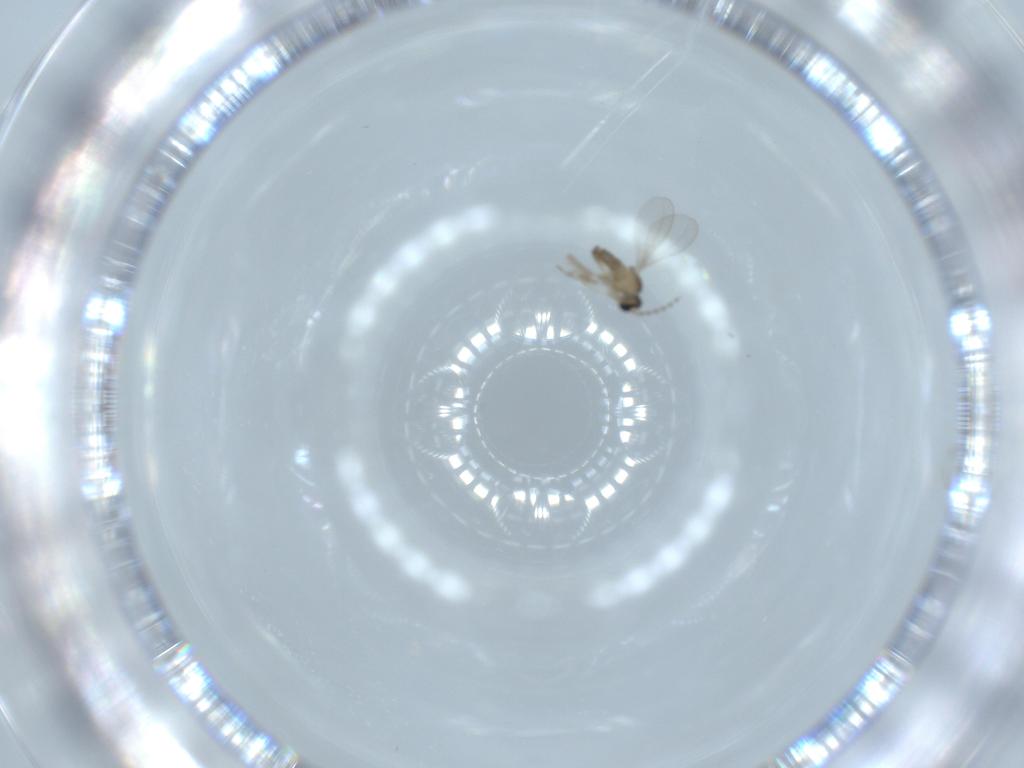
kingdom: Animalia
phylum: Arthropoda
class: Insecta
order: Diptera
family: Cecidomyiidae
